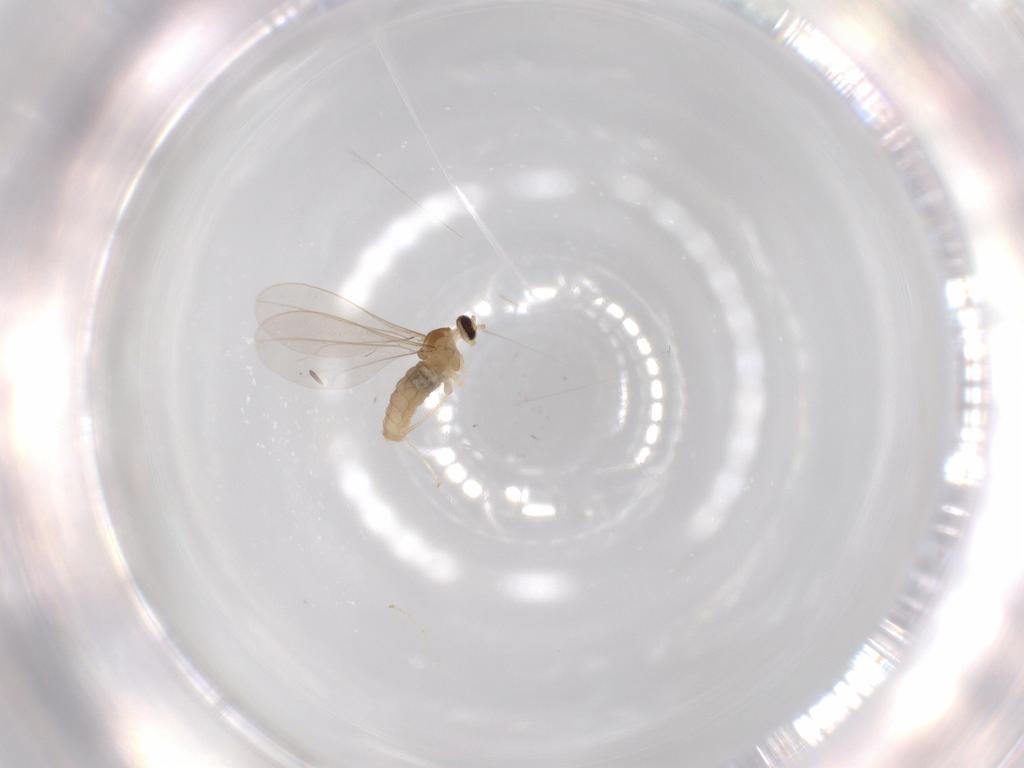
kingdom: Animalia
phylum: Arthropoda
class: Insecta
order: Diptera
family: Cecidomyiidae
